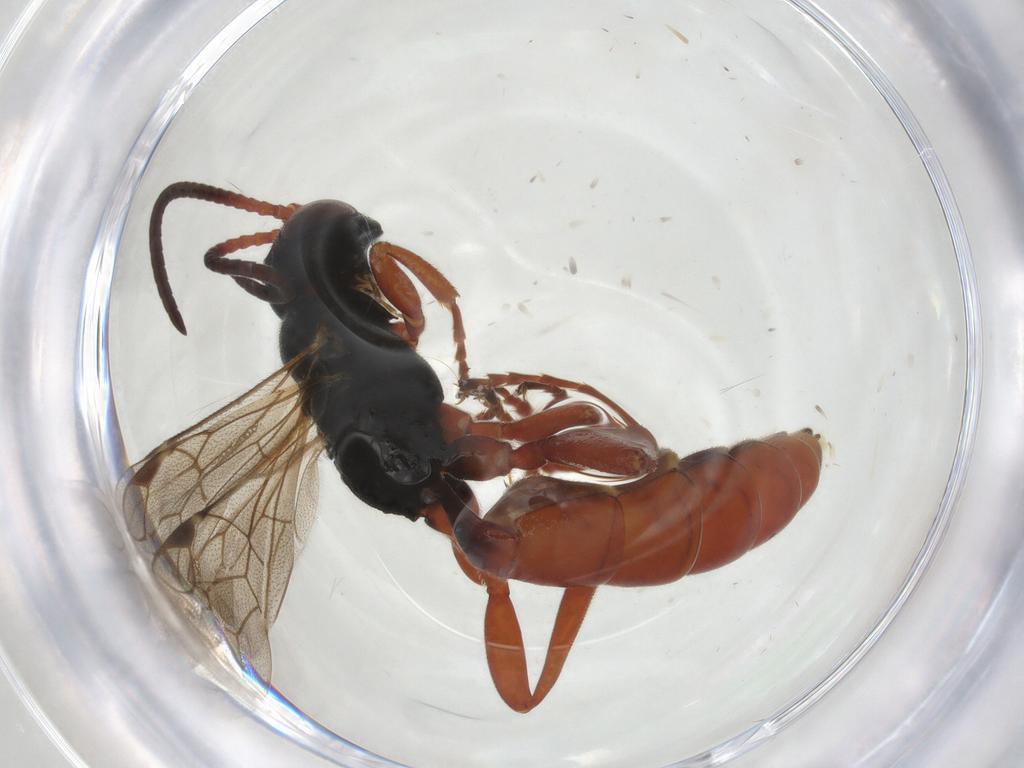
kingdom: Animalia
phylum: Arthropoda
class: Insecta
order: Hymenoptera
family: Ichneumonidae
